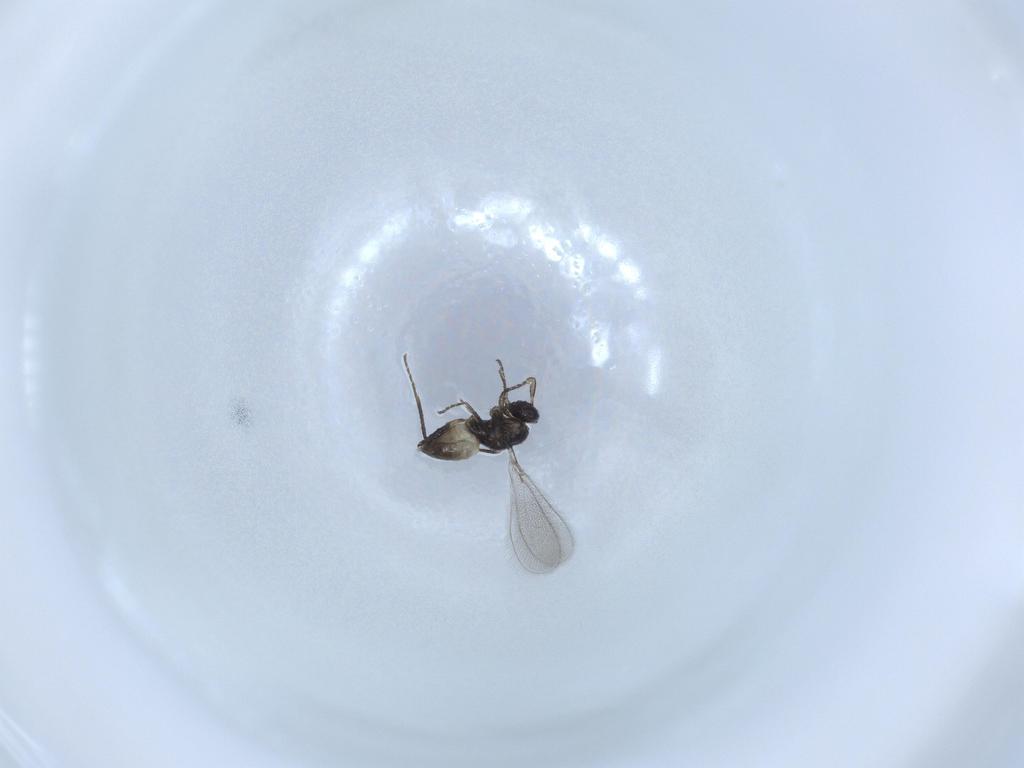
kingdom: Animalia
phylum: Arthropoda
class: Insecta
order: Hymenoptera
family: Mymaridae
